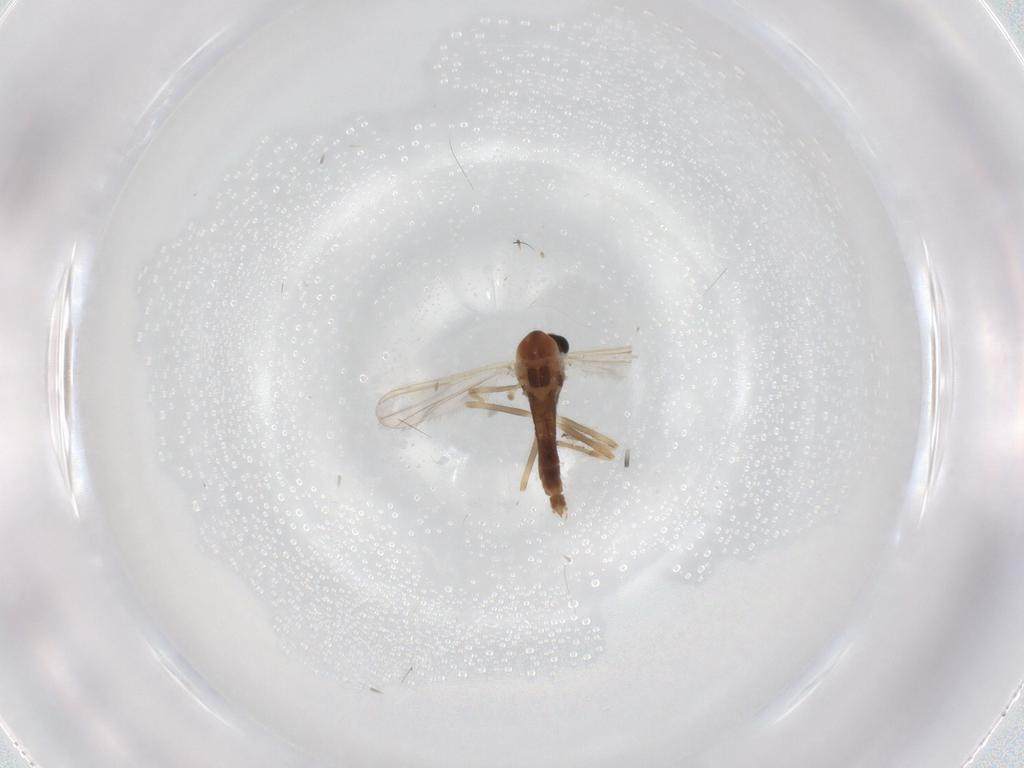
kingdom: Animalia
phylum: Arthropoda
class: Insecta
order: Diptera
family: Chironomidae
